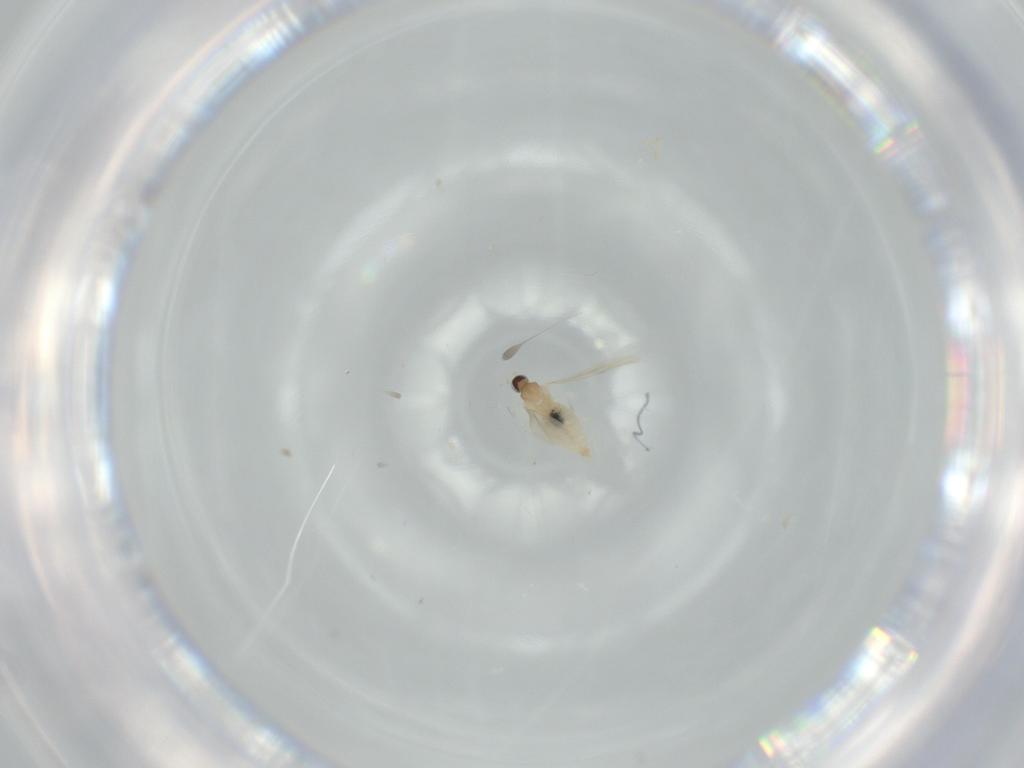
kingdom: Animalia
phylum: Arthropoda
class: Insecta
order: Diptera
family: Cecidomyiidae
